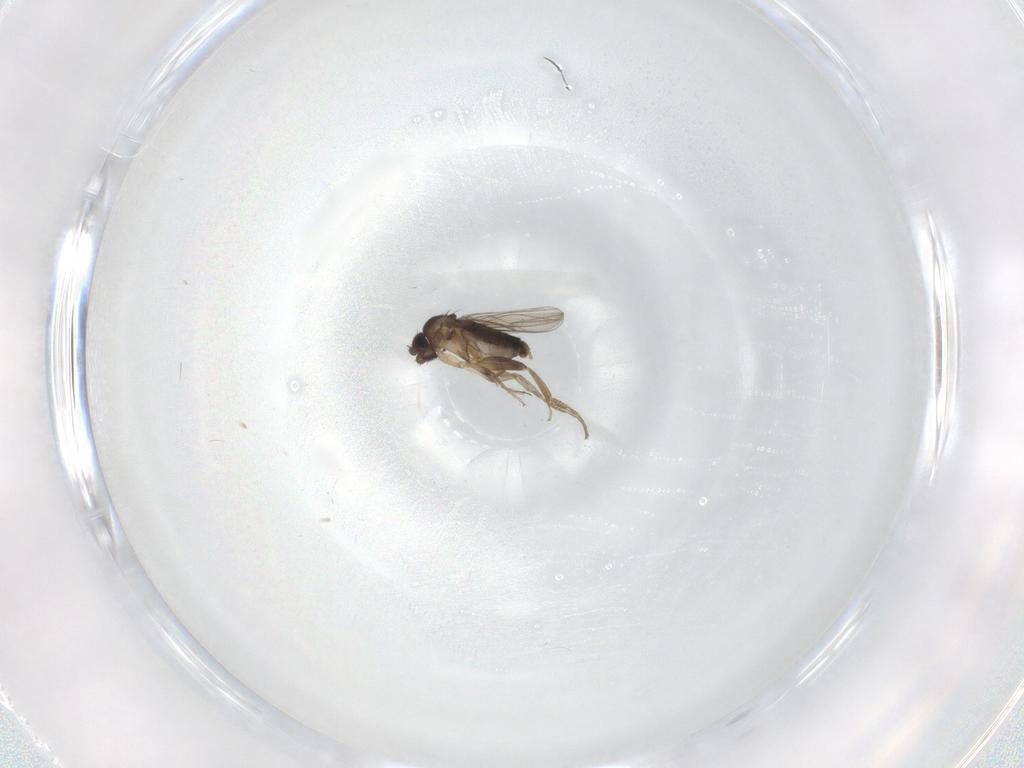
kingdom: Animalia
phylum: Arthropoda
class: Insecta
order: Diptera
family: Phoridae
